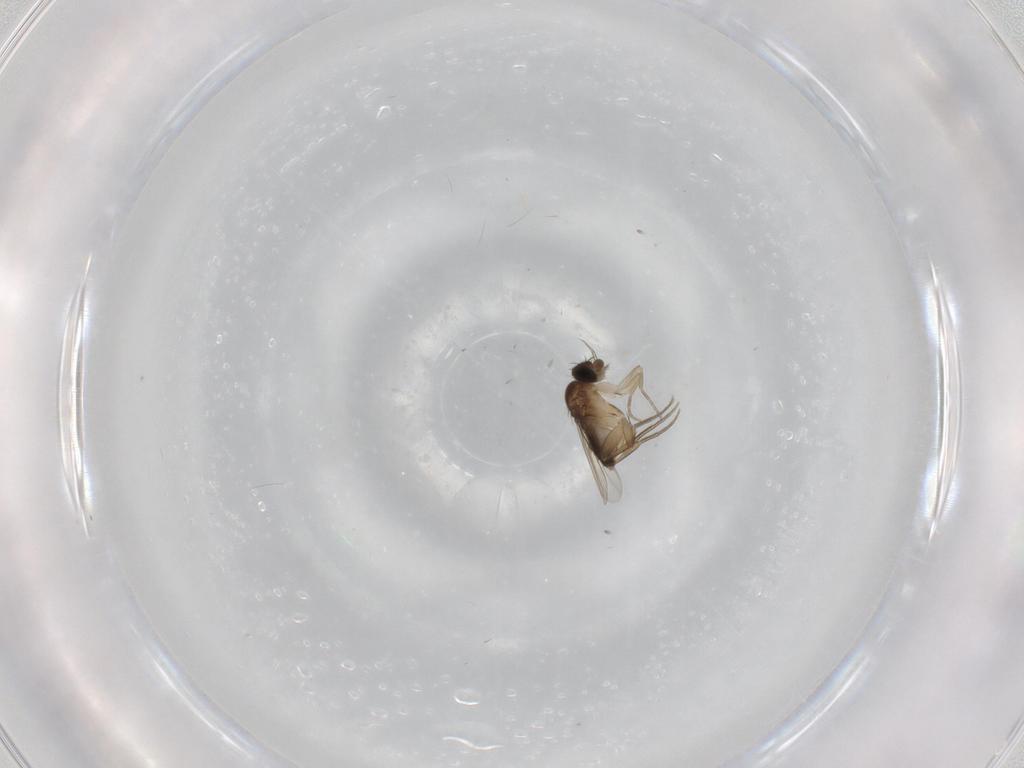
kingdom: Animalia
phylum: Arthropoda
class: Insecta
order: Diptera
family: Phoridae
